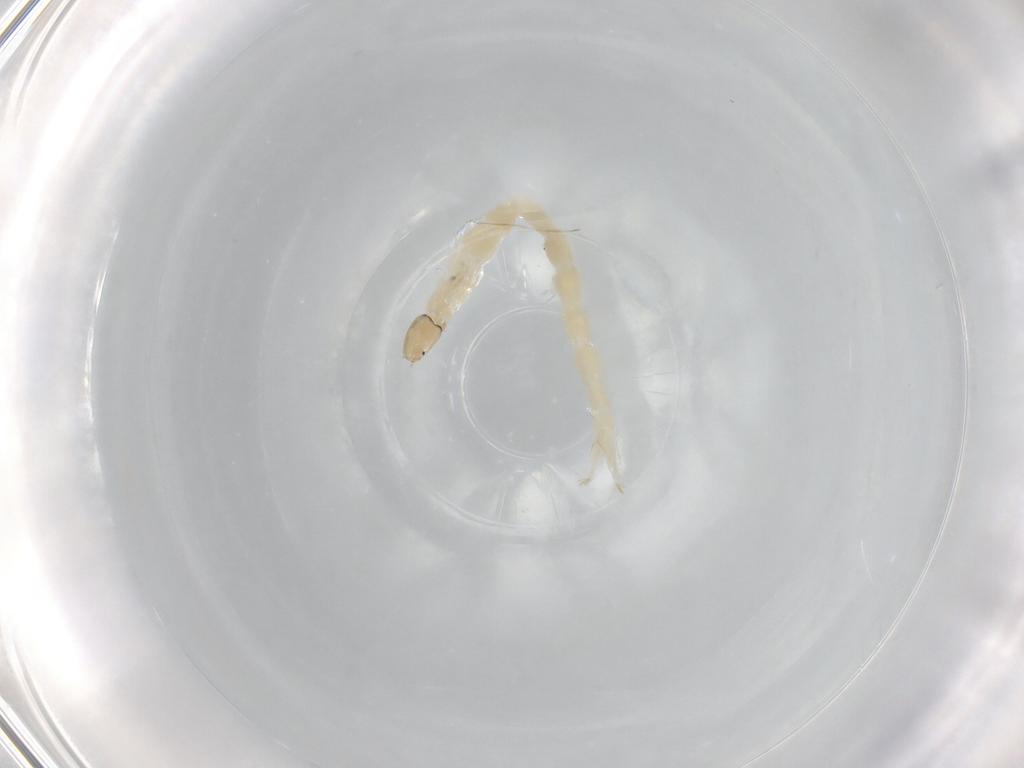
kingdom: Animalia
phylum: Arthropoda
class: Insecta
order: Diptera
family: Chironomidae
